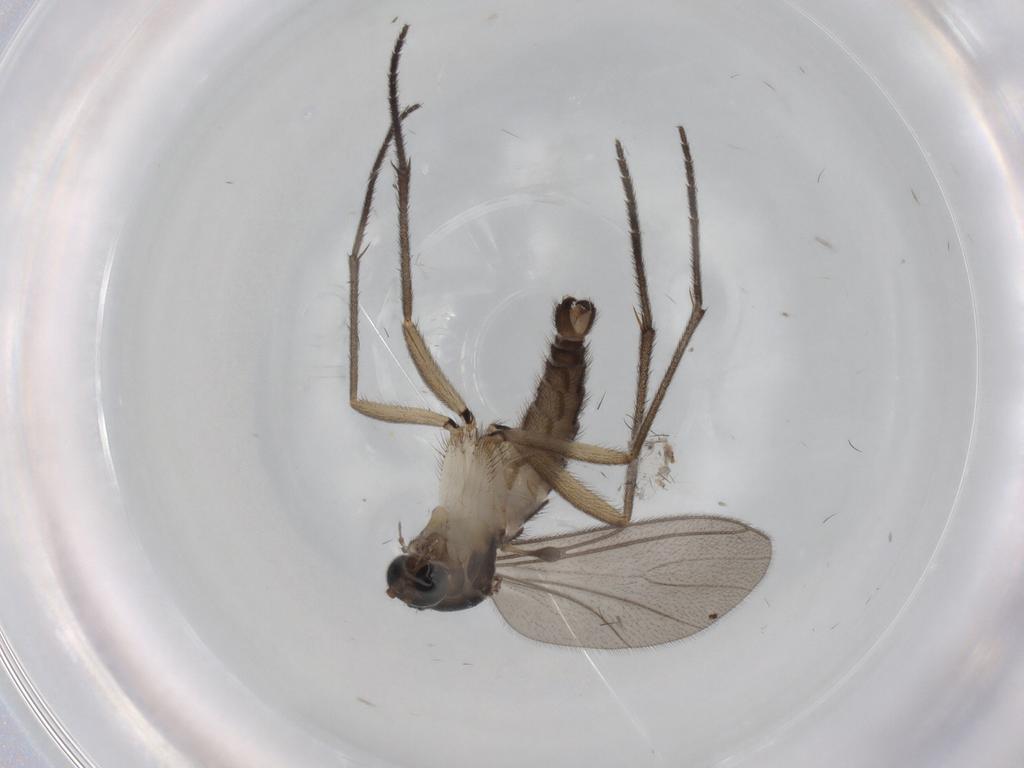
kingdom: Animalia
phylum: Arthropoda
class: Insecta
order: Diptera
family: Sciaridae
